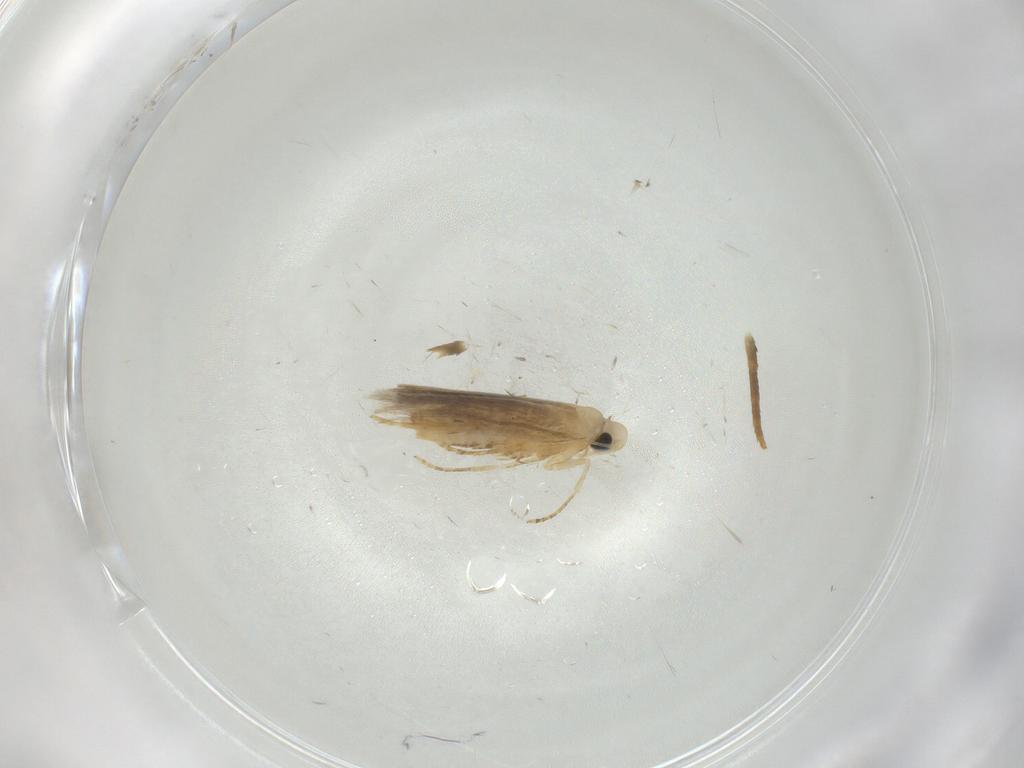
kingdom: Animalia
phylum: Arthropoda
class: Insecta
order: Lepidoptera
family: Tischeriidae
